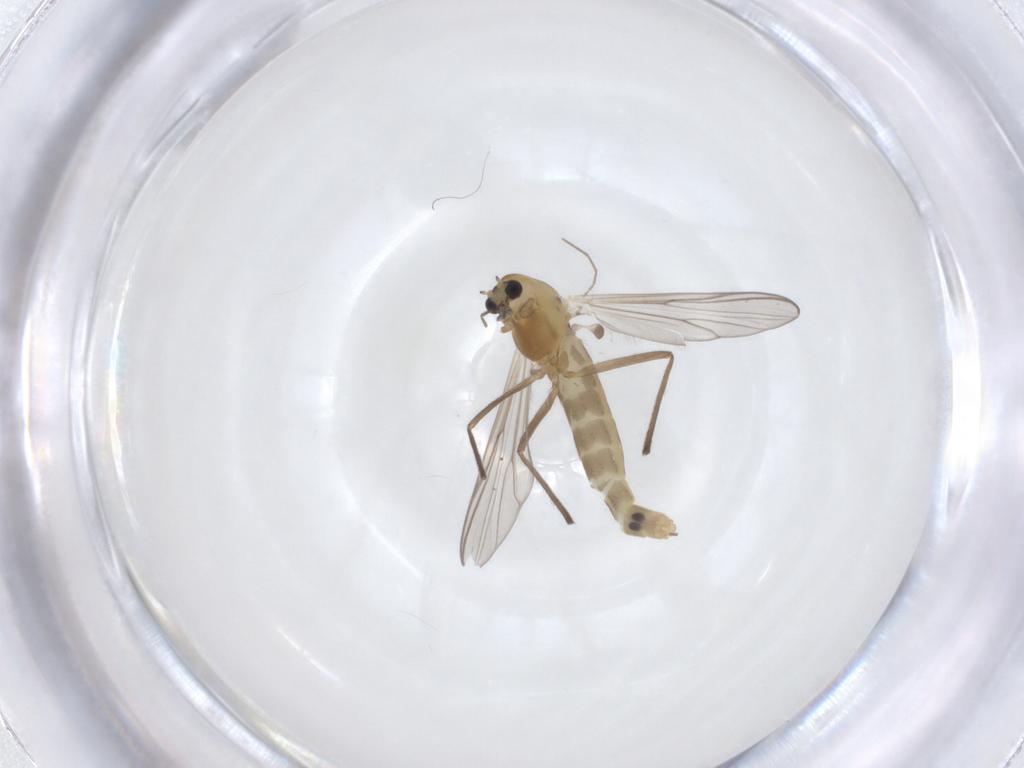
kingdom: Animalia
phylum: Arthropoda
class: Insecta
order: Diptera
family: Chironomidae
